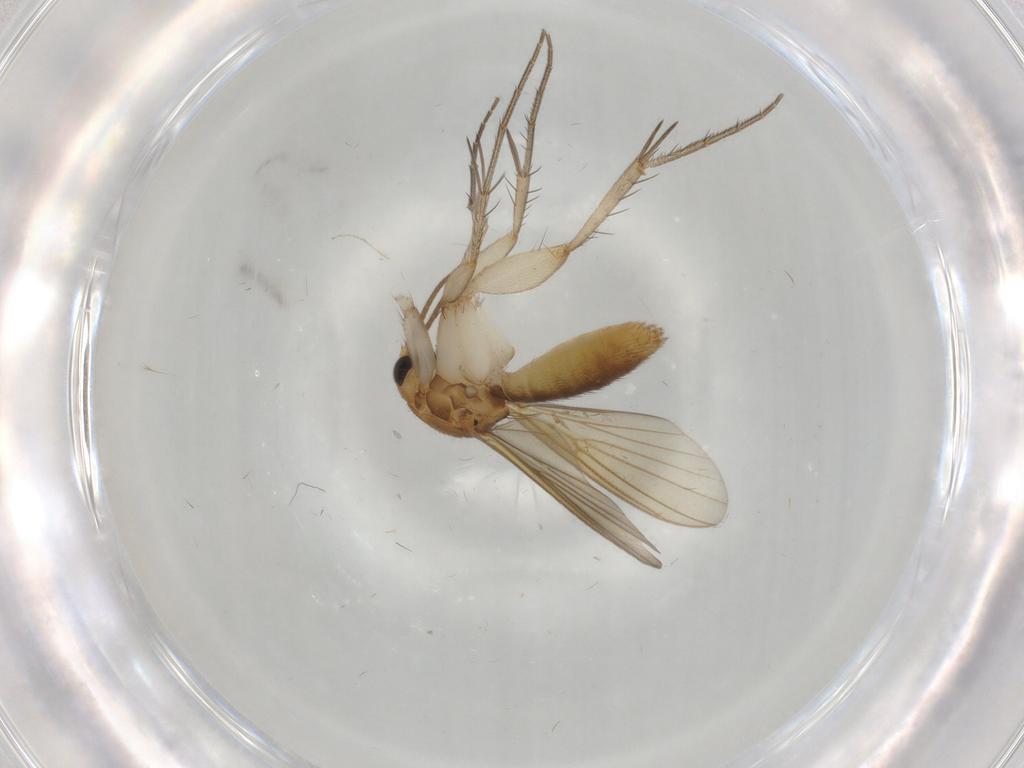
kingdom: Animalia
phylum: Arthropoda
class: Insecta
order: Diptera
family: Cecidomyiidae
